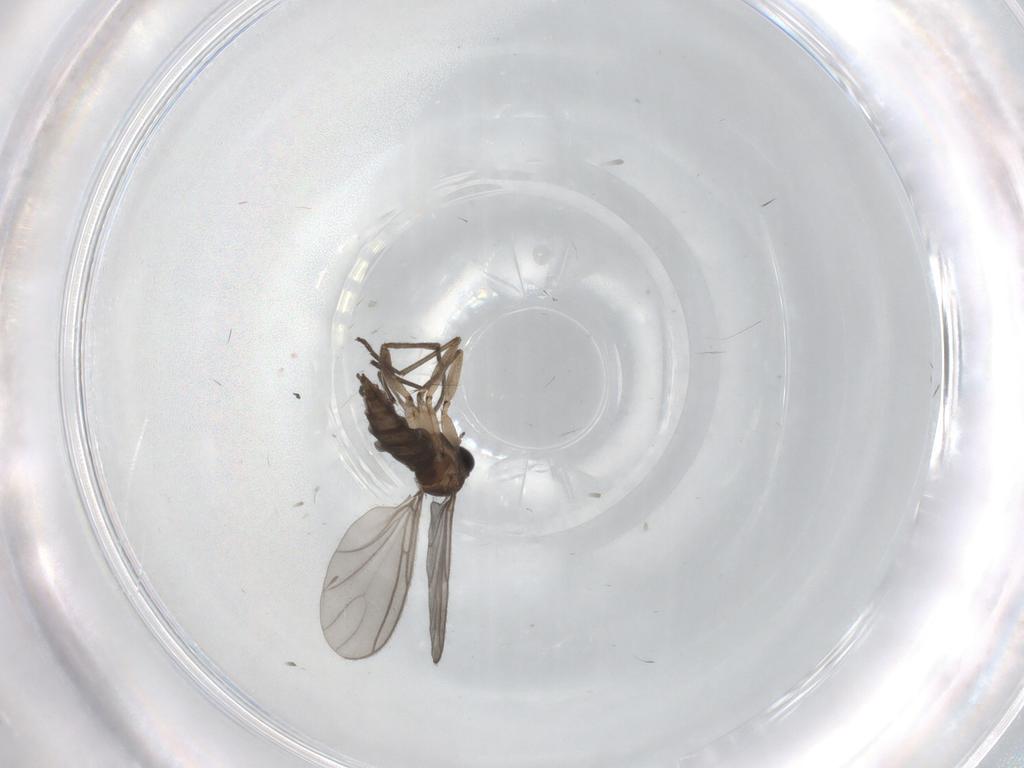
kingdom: Animalia
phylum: Arthropoda
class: Insecta
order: Diptera
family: Sciaridae
